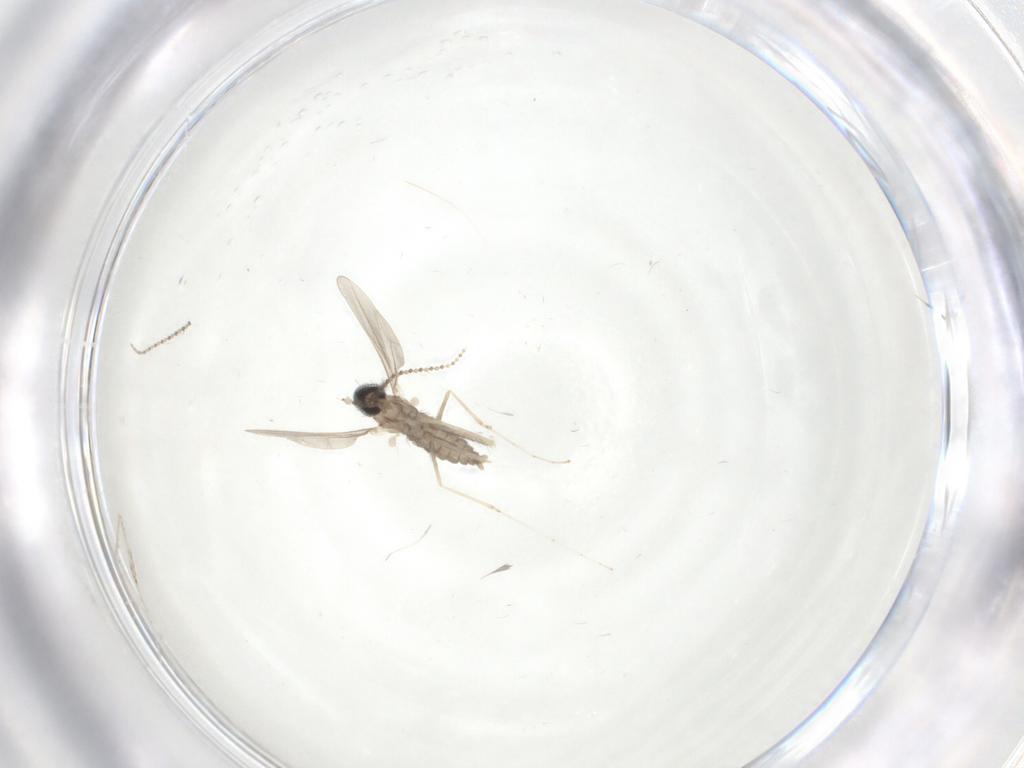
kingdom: Animalia
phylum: Arthropoda
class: Insecta
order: Diptera
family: Cecidomyiidae
